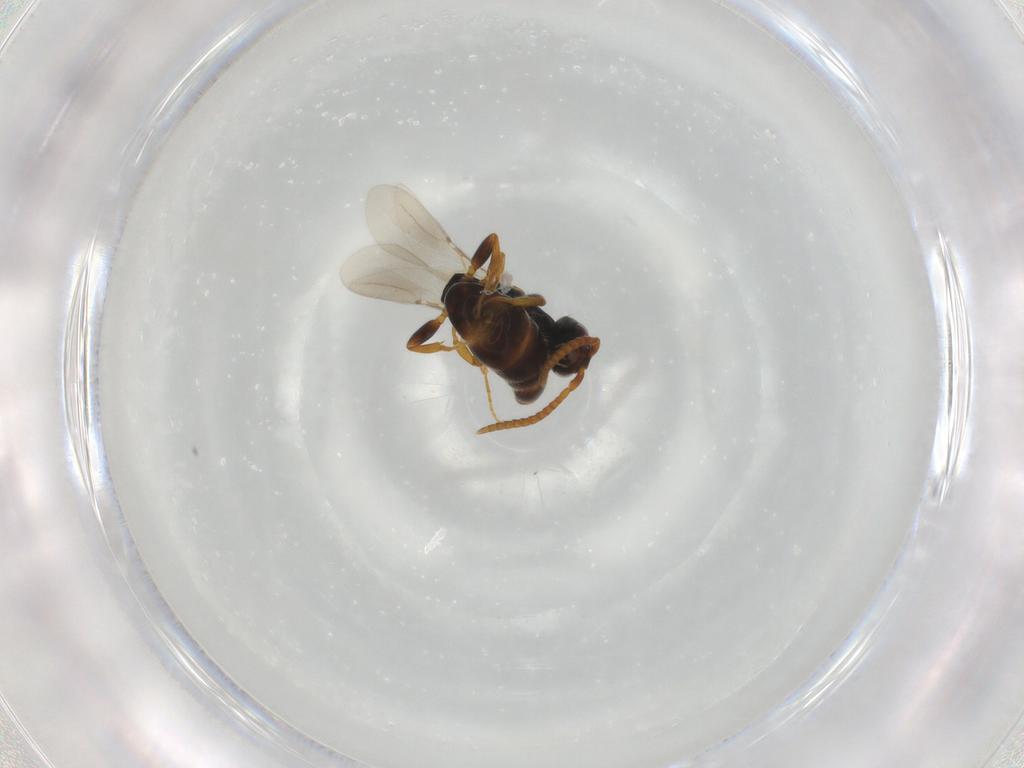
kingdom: Animalia
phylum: Arthropoda
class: Insecta
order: Hymenoptera
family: Bethylidae
